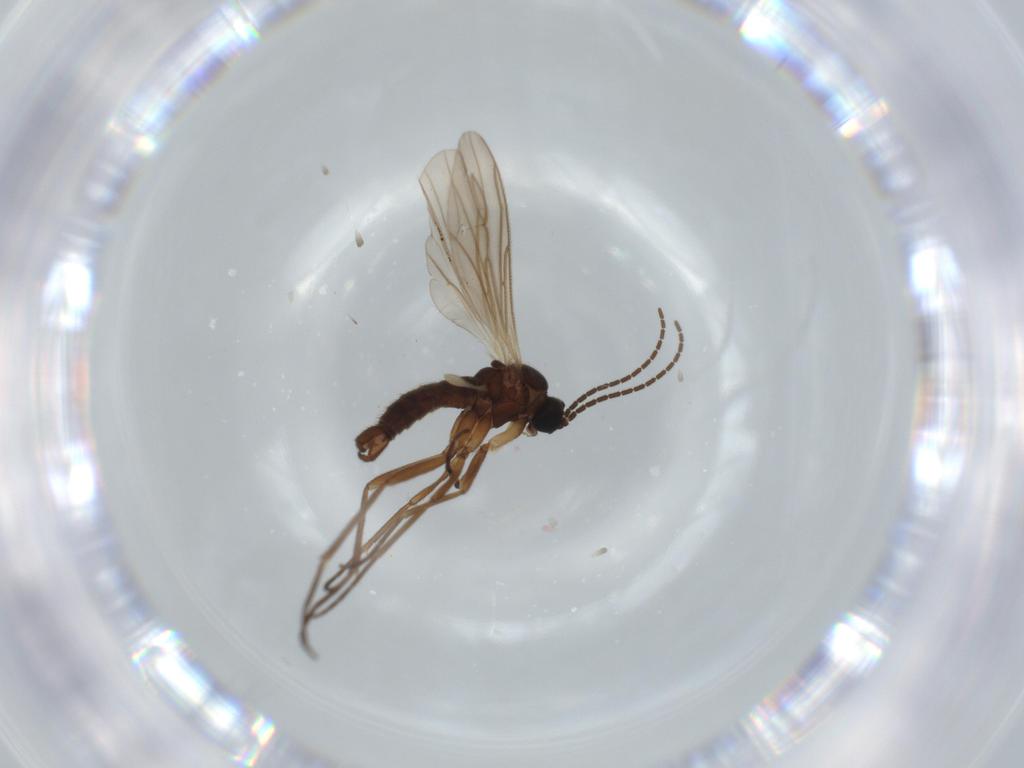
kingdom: Animalia
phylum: Arthropoda
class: Insecta
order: Diptera
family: Sciaridae
